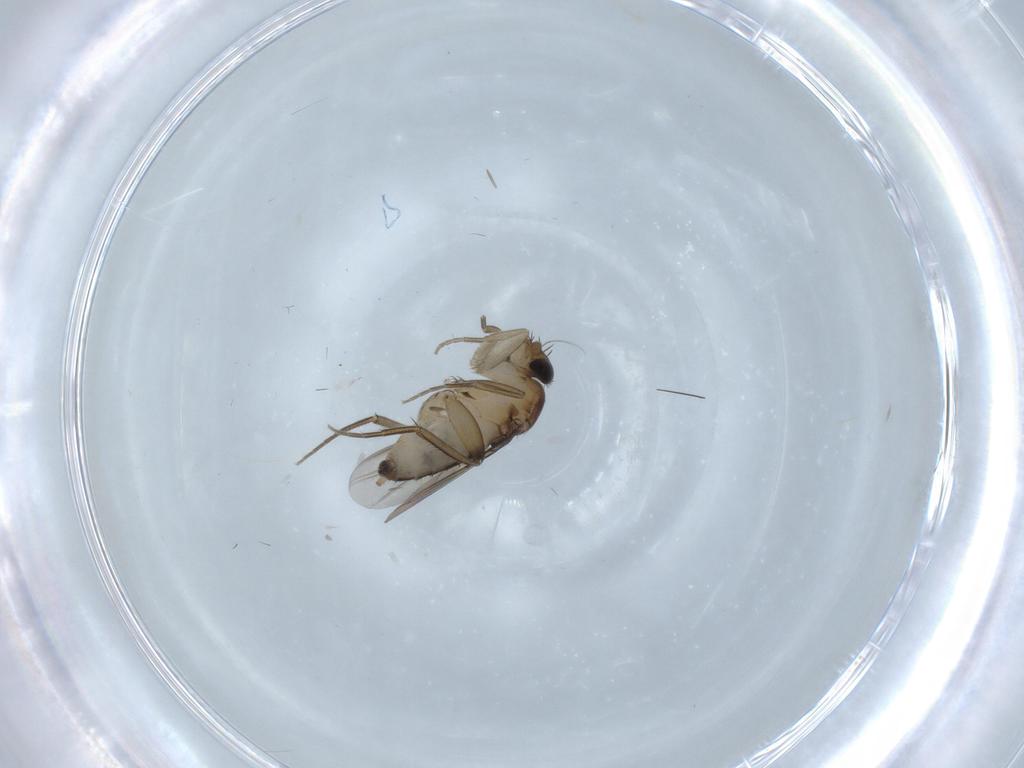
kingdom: Animalia
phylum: Arthropoda
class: Insecta
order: Diptera
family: Phoridae
